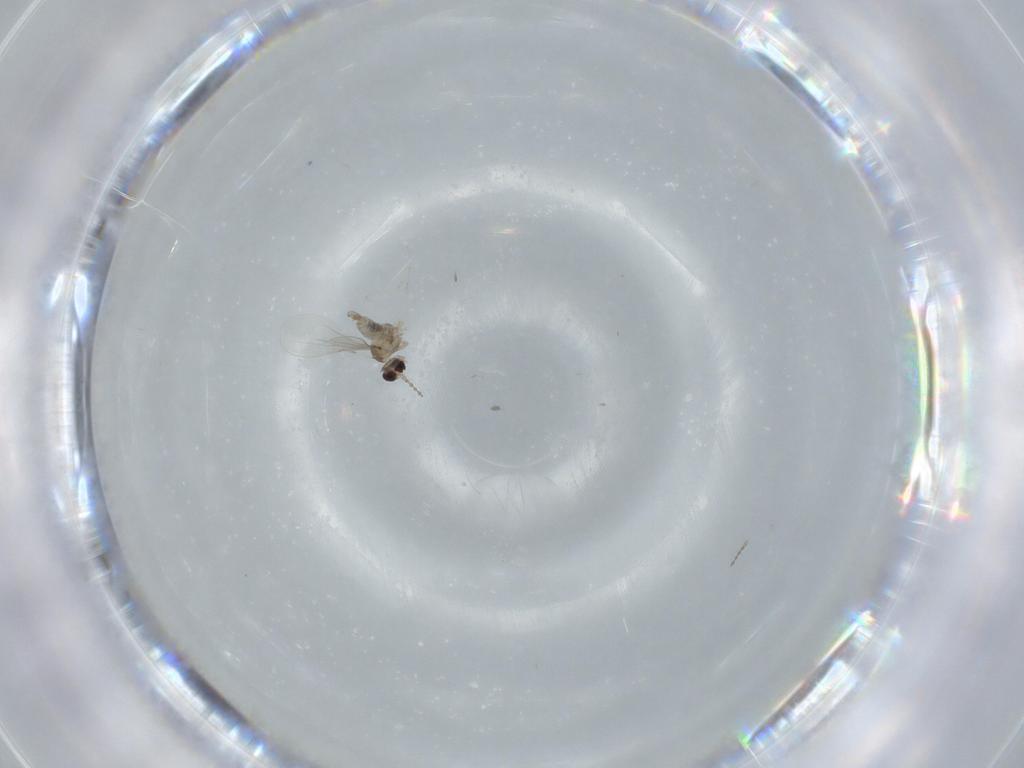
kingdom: Animalia
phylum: Arthropoda
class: Insecta
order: Diptera
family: Cecidomyiidae
